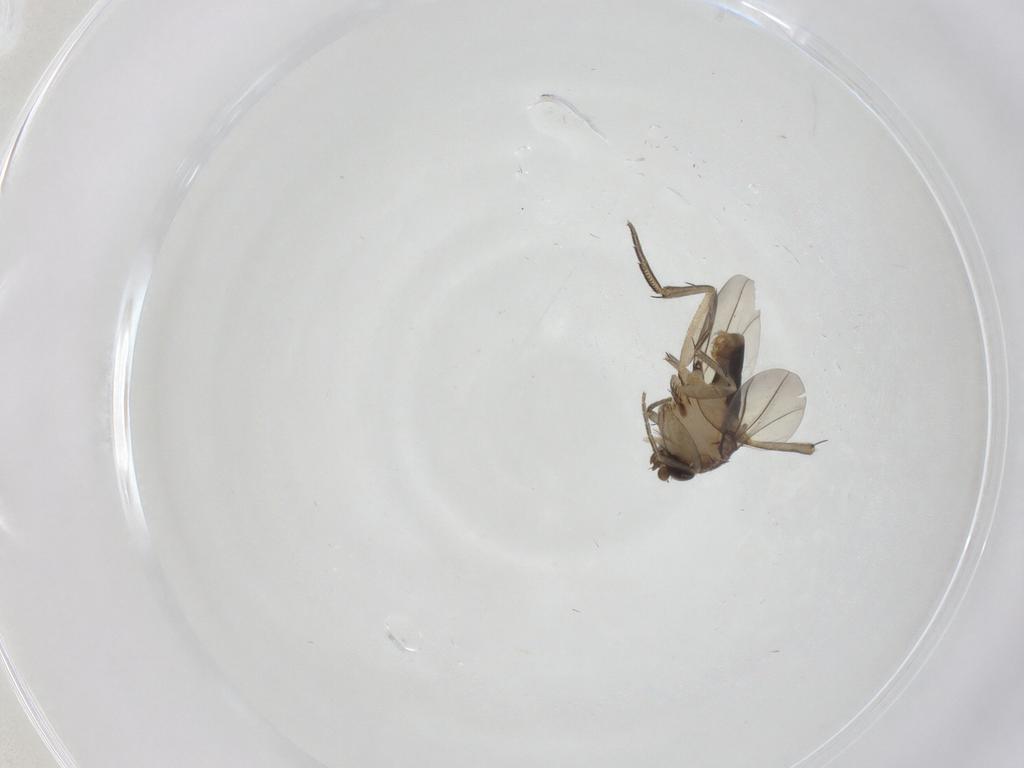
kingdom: Animalia
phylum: Arthropoda
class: Insecta
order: Diptera
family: Phoridae
